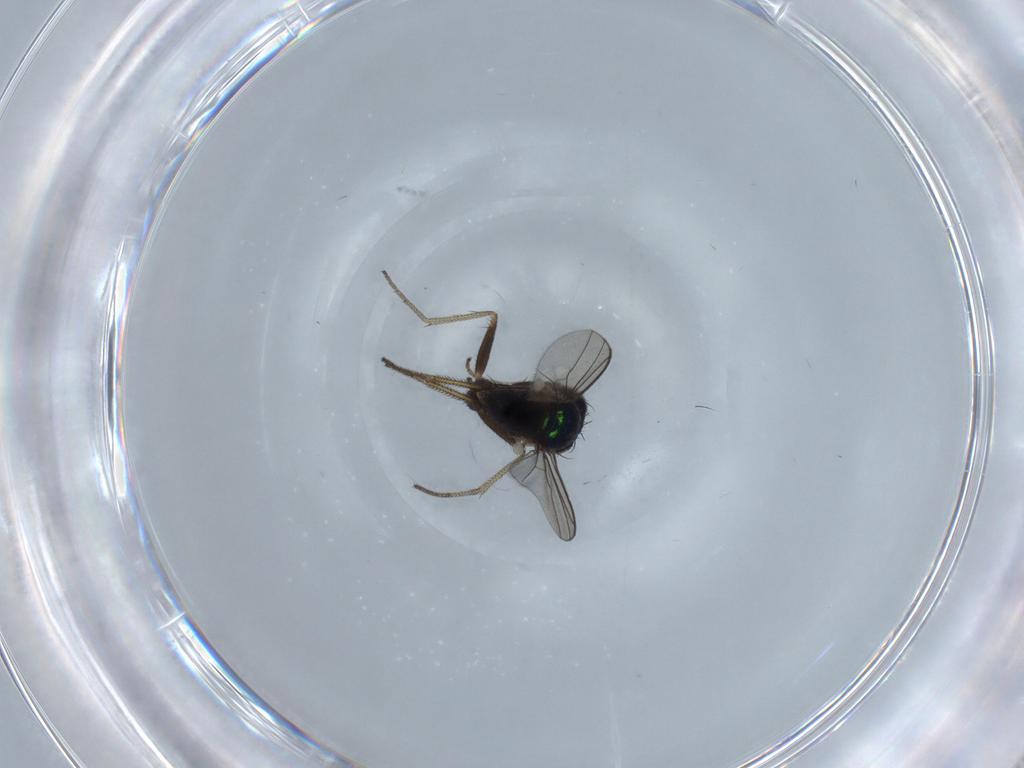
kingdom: Animalia
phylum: Arthropoda
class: Insecta
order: Diptera
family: Dolichopodidae
